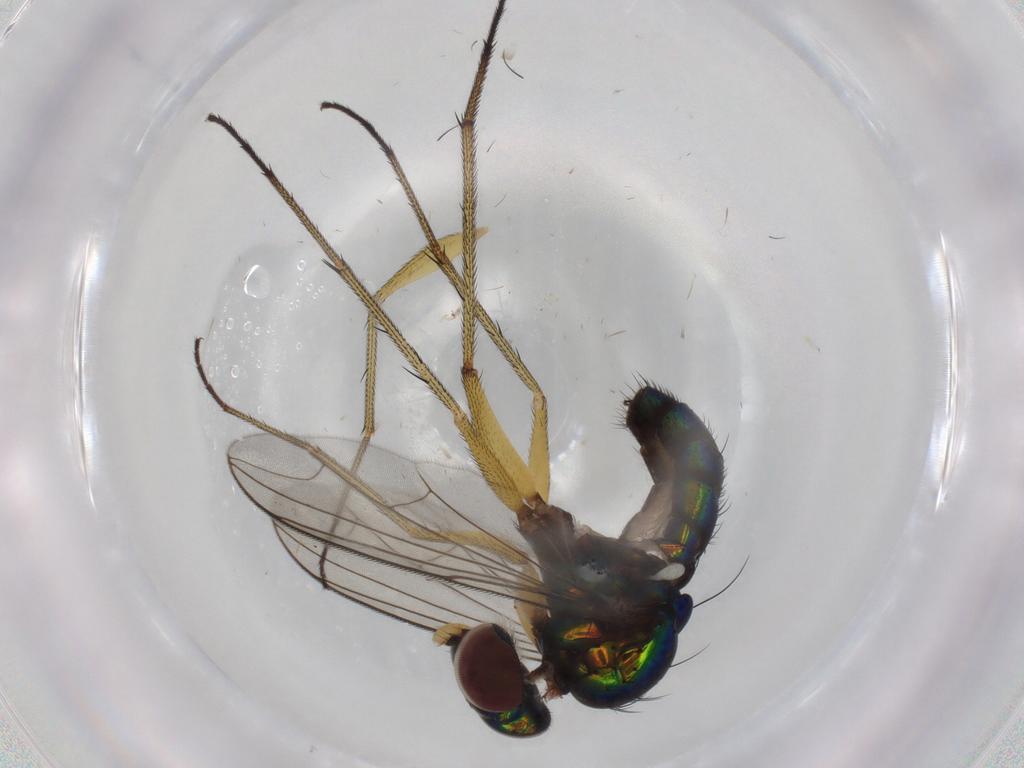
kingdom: Animalia
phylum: Arthropoda
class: Insecta
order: Diptera
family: Dolichopodidae
